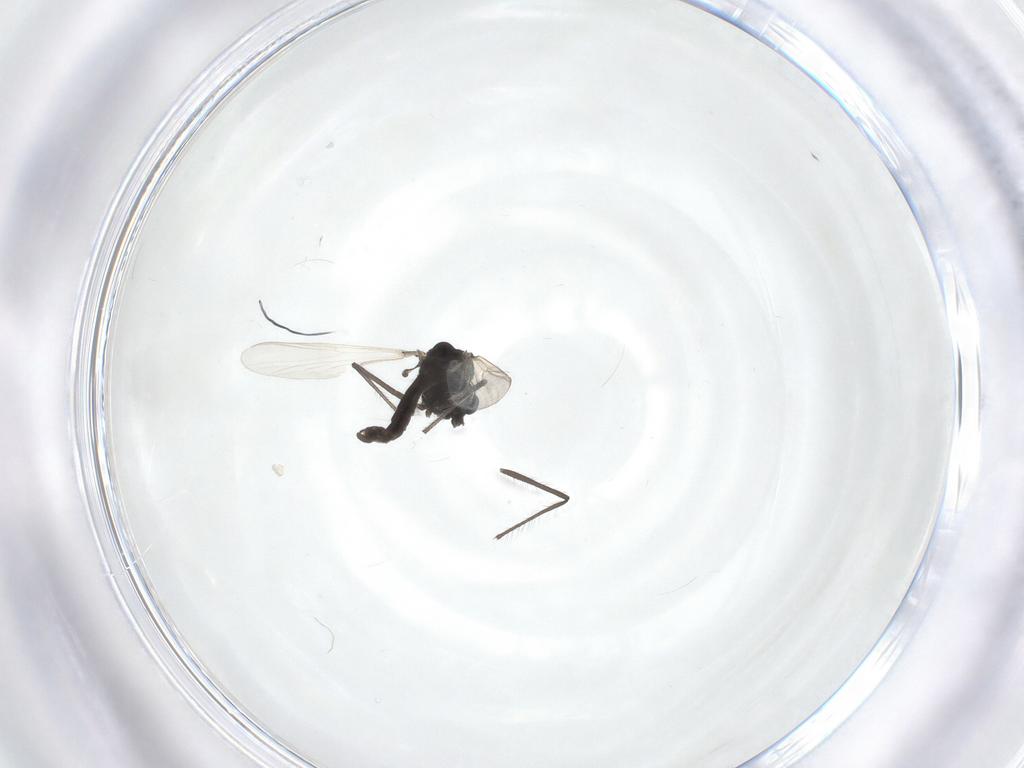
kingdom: Animalia
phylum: Arthropoda
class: Insecta
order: Diptera
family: Chironomidae
